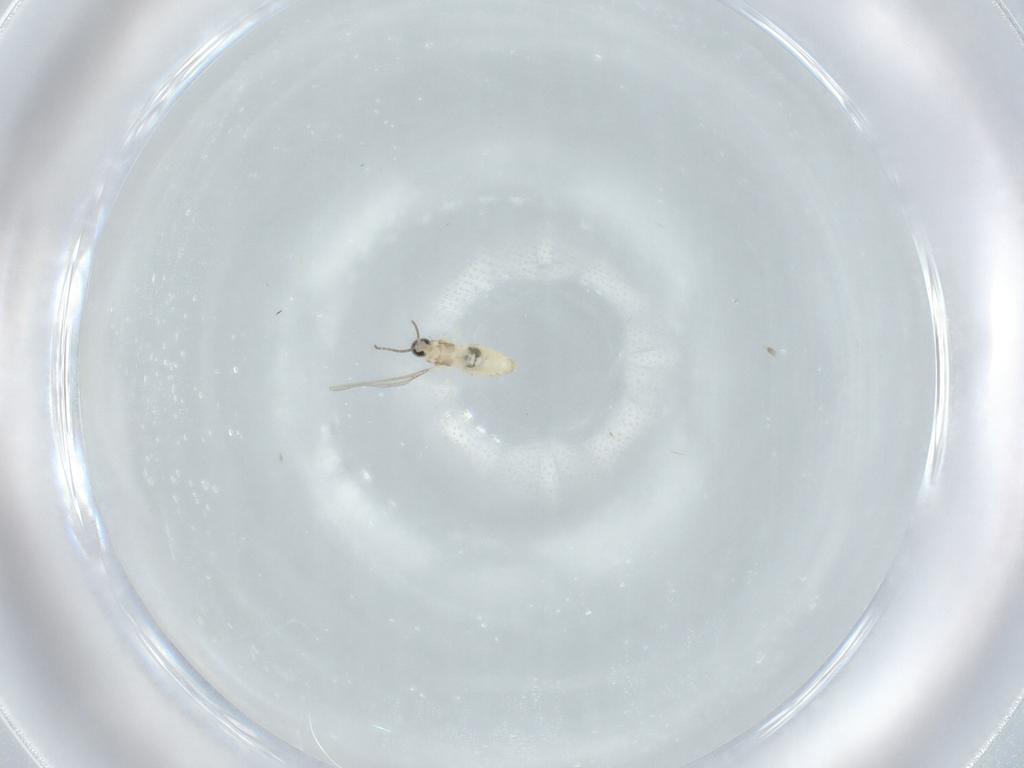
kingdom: Animalia
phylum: Arthropoda
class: Insecta
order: Diptera
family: Cecidomyiidae
